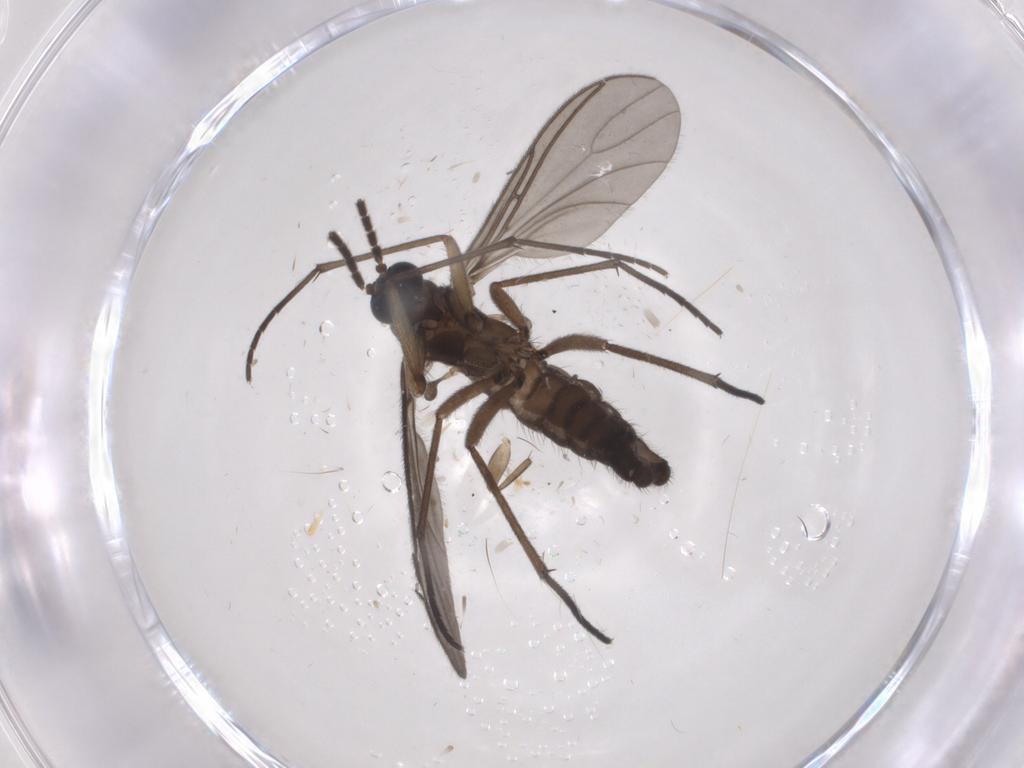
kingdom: Animalia
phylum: Arthropoda
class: Insecta
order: Diptera
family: Sciaridae
